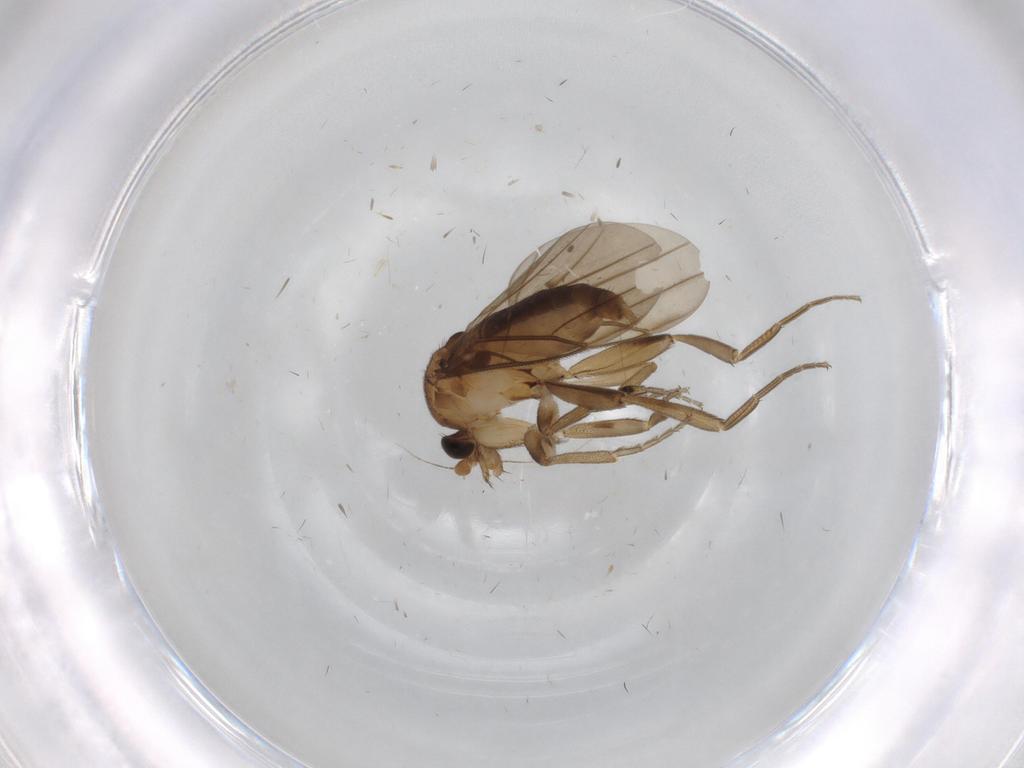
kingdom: Animalia
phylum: Arthropoda
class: Insecta
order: Diptera
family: Phoridae
